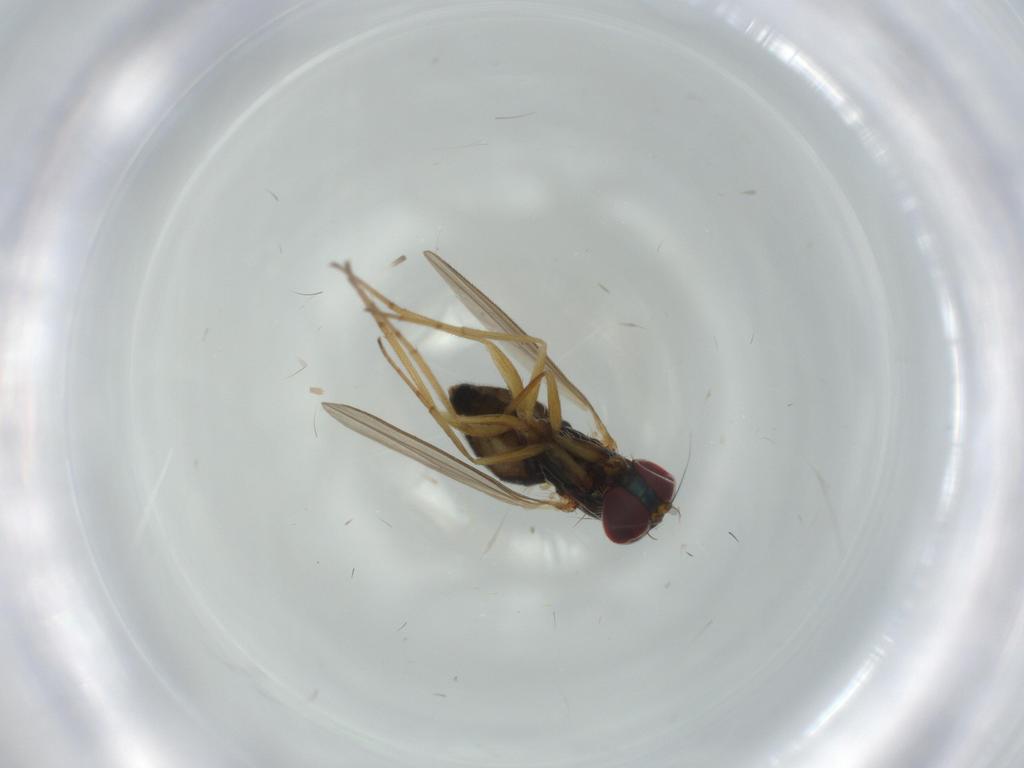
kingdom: Animalia
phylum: Arthropoda
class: Insecta
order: Diptera
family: Dolichopodidae
